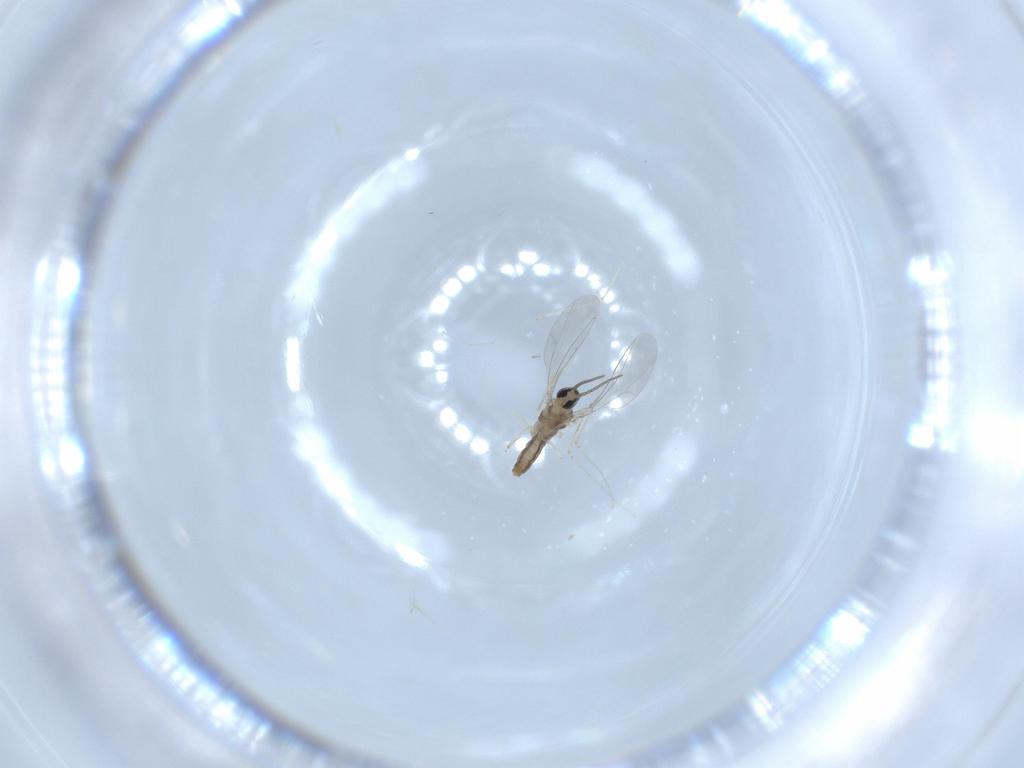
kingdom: Animalia
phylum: Arthropoda
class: Insecta
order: Diptera
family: Cecidomyiidae
